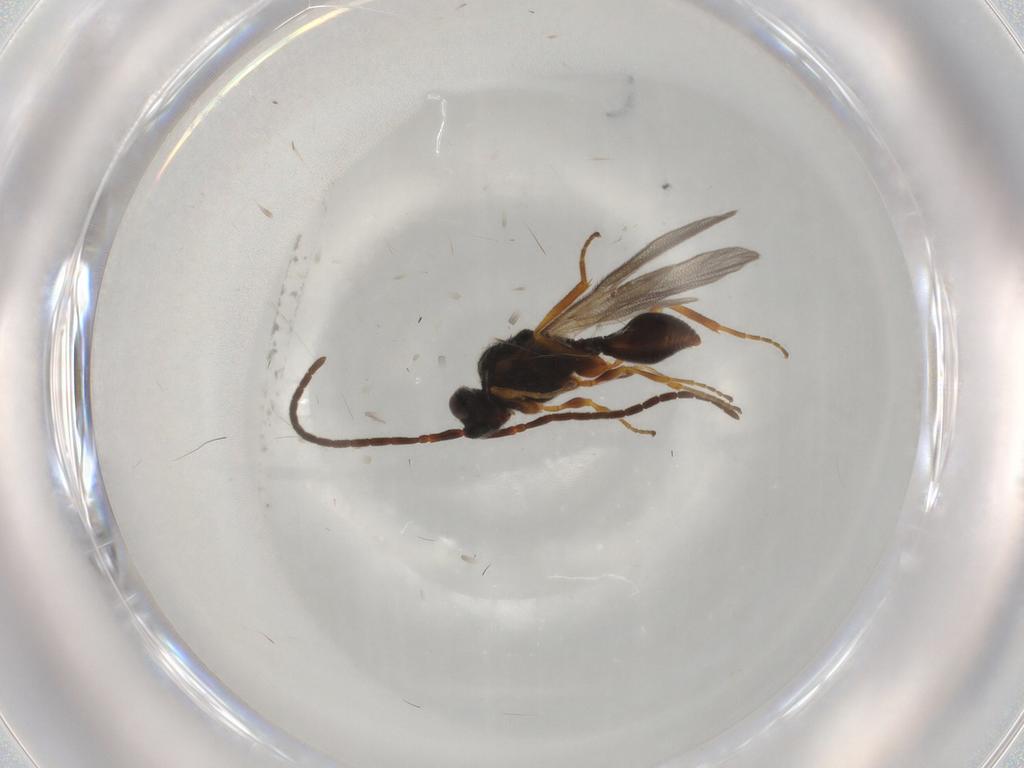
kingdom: Animalia
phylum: Arthropoda
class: Insecta
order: Hymenoptera
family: Diapriidae
